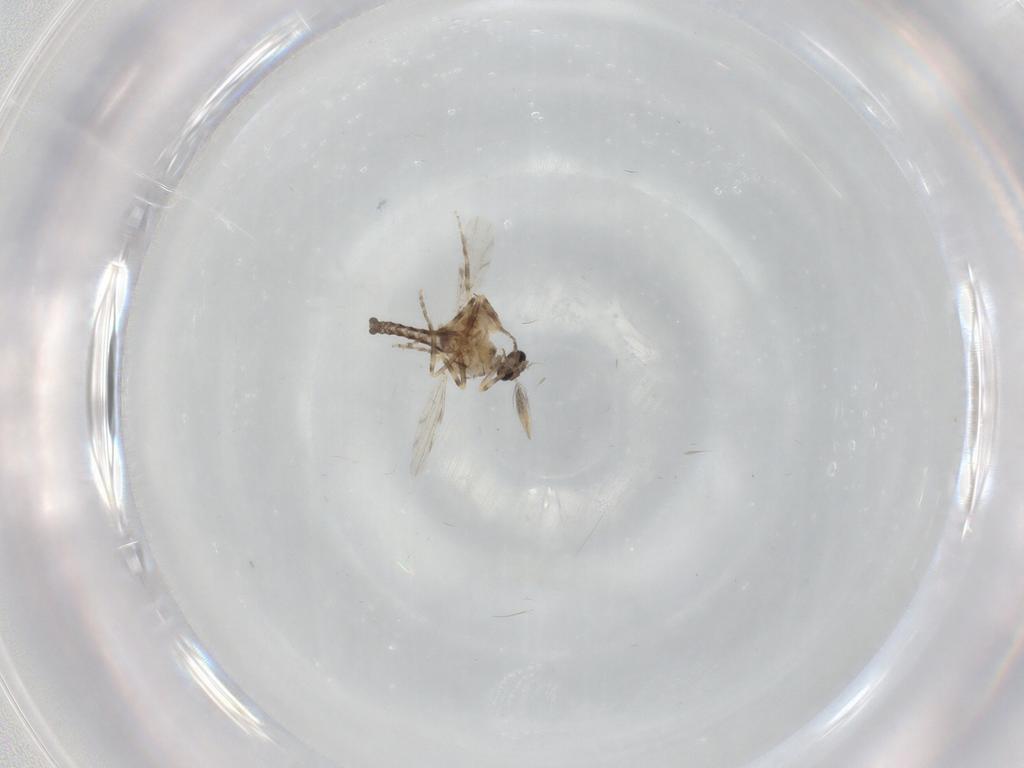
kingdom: Animalia
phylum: Arthropoda
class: Insecta
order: Diptera
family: Ceratopogonidae
